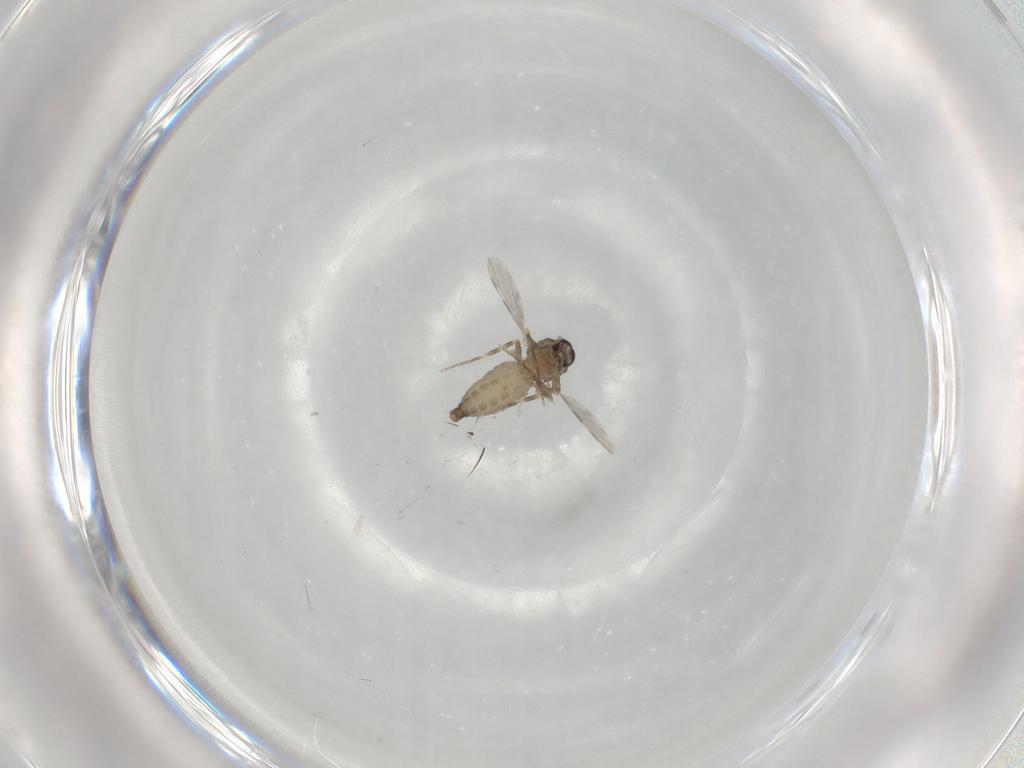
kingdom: Animalia
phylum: Arthropoda
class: Insecta
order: Diptera
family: Ceratopogonidae
